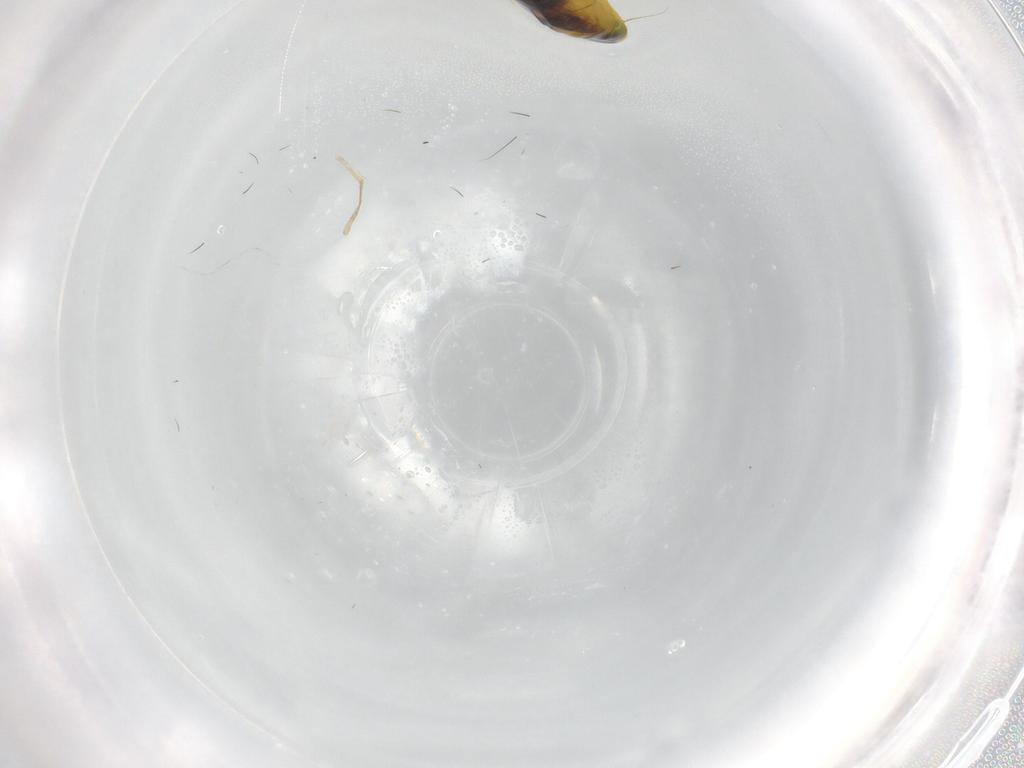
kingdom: Animalia
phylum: Arthropoda
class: Insecta
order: Hemiptera
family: Cicadellidae
